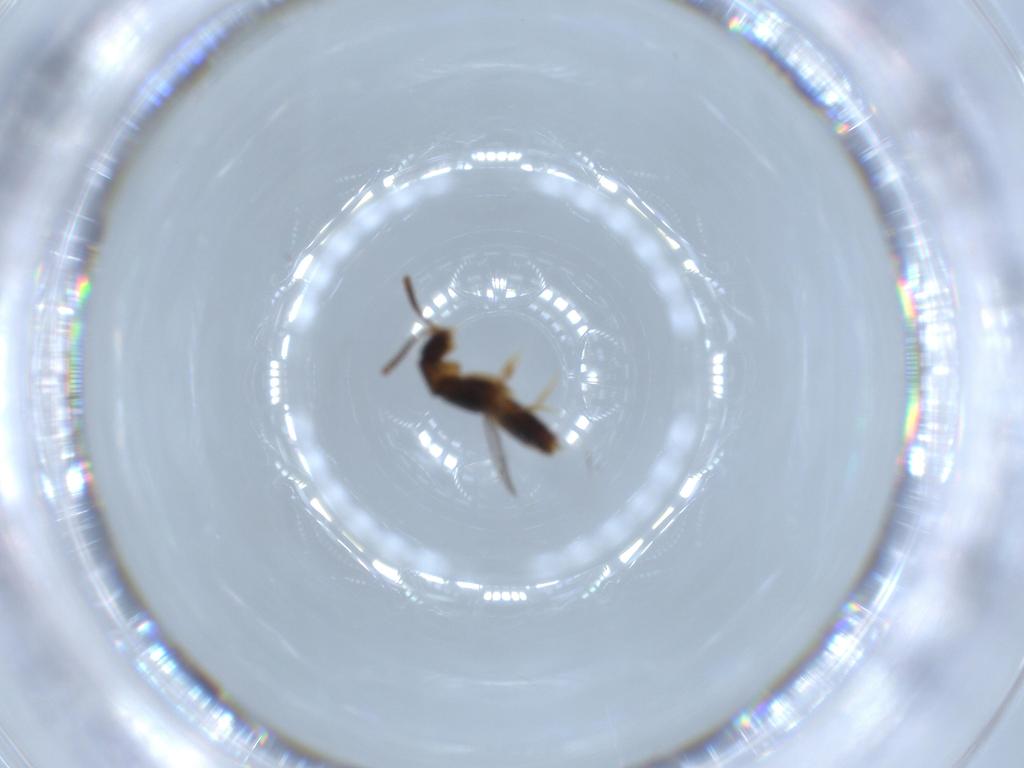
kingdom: Animalia
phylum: Arthropoda
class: Insecta
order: Coleoptera
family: Staphylinidae
